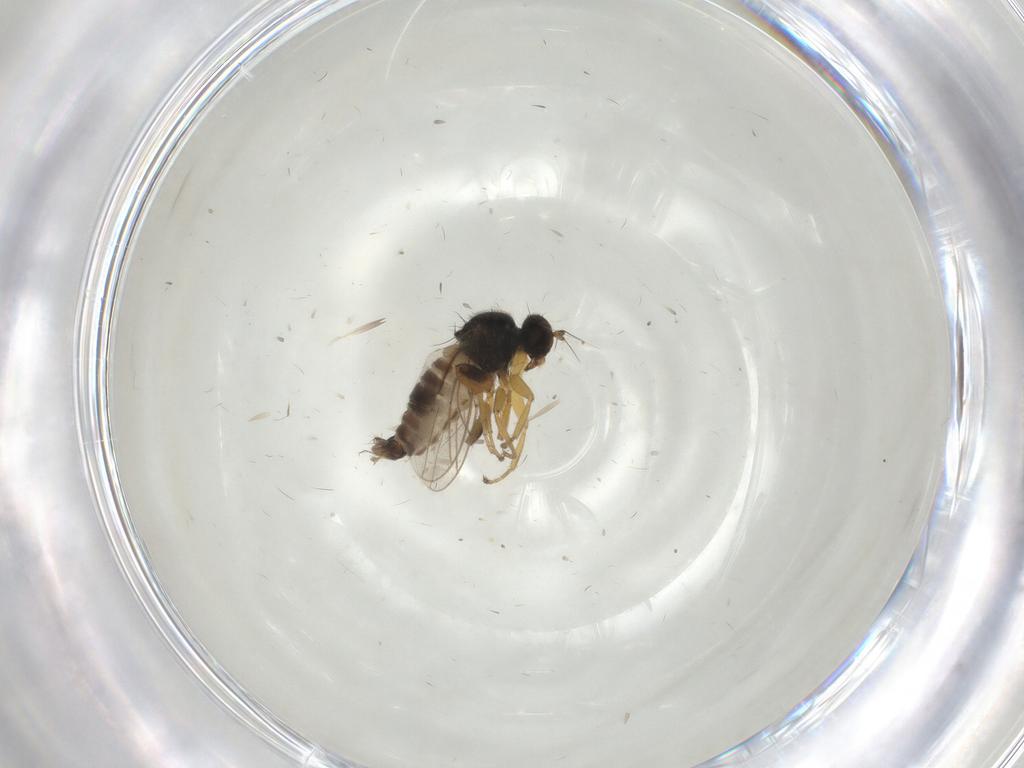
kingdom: Animalia
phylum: Arthropoda
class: Insecta
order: Diptera
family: Hybotidae
